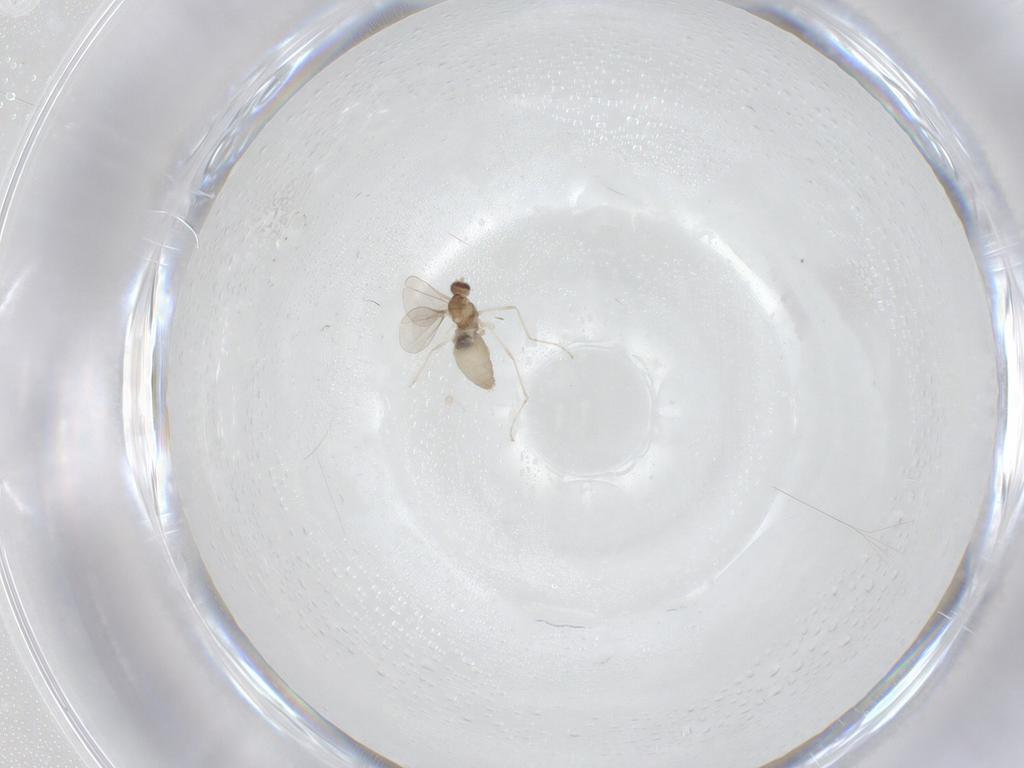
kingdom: Animalia
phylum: Arthropoda
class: Insecta
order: Diptera
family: Cecidomyiidae
